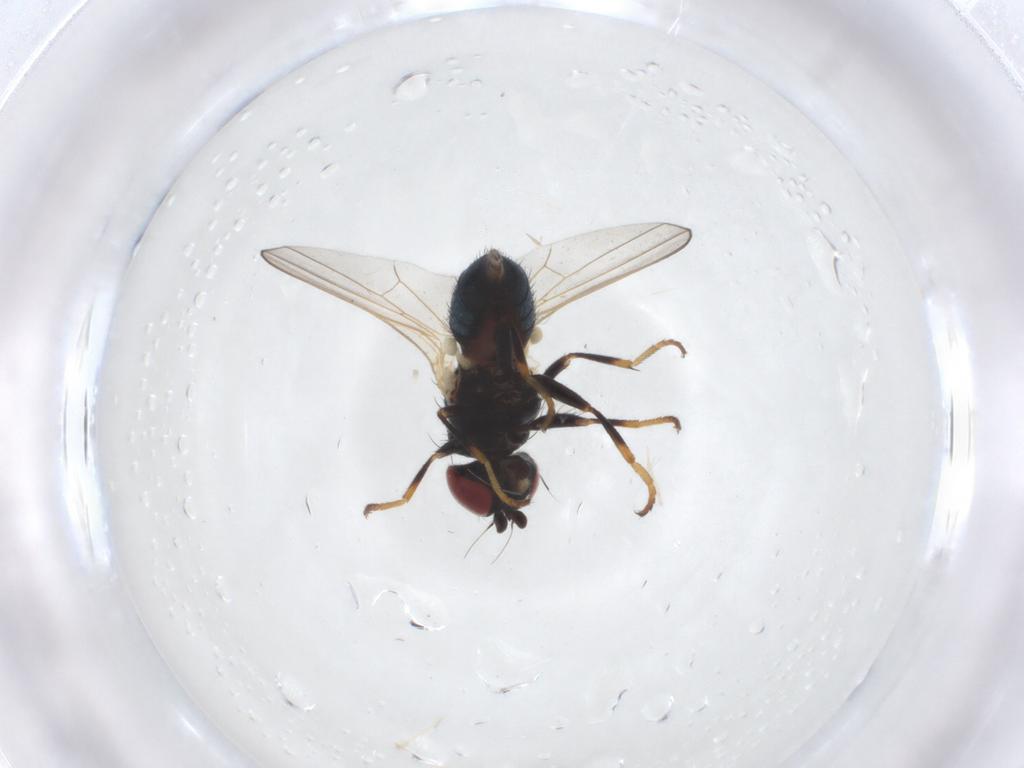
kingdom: Animalia
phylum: Arthropoda
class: Insecta
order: Diptera
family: Chamaemyiidae
